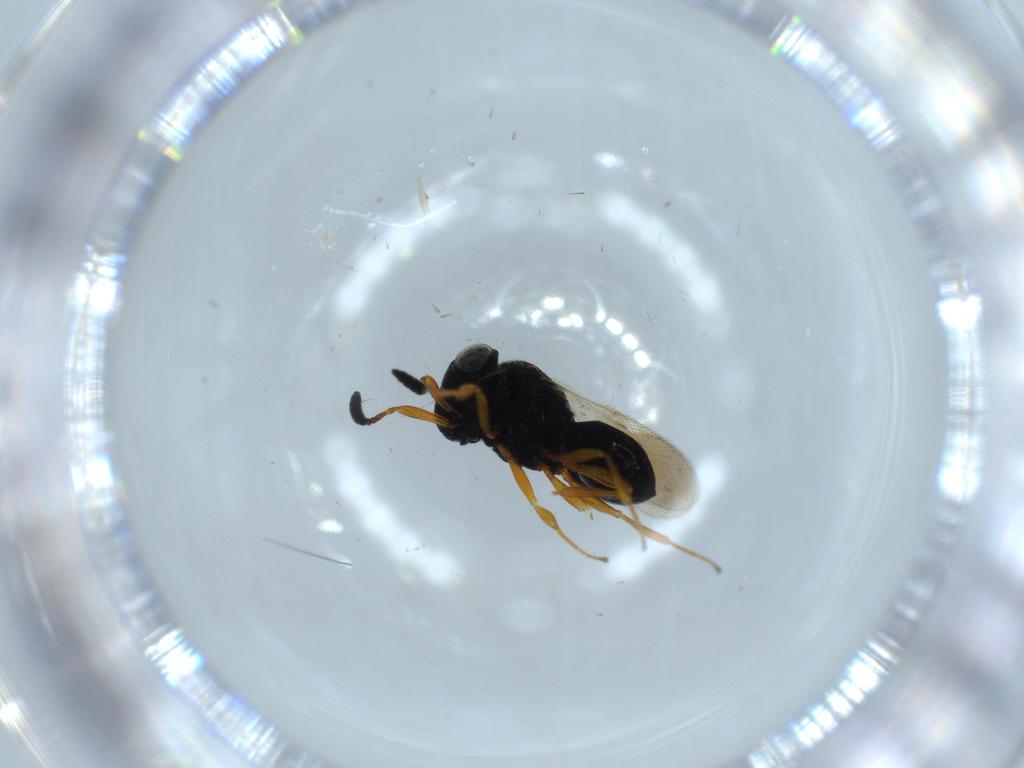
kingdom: Animalia
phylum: Arthropoda
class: Insecta
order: Hymenoptera
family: Scelionidae
